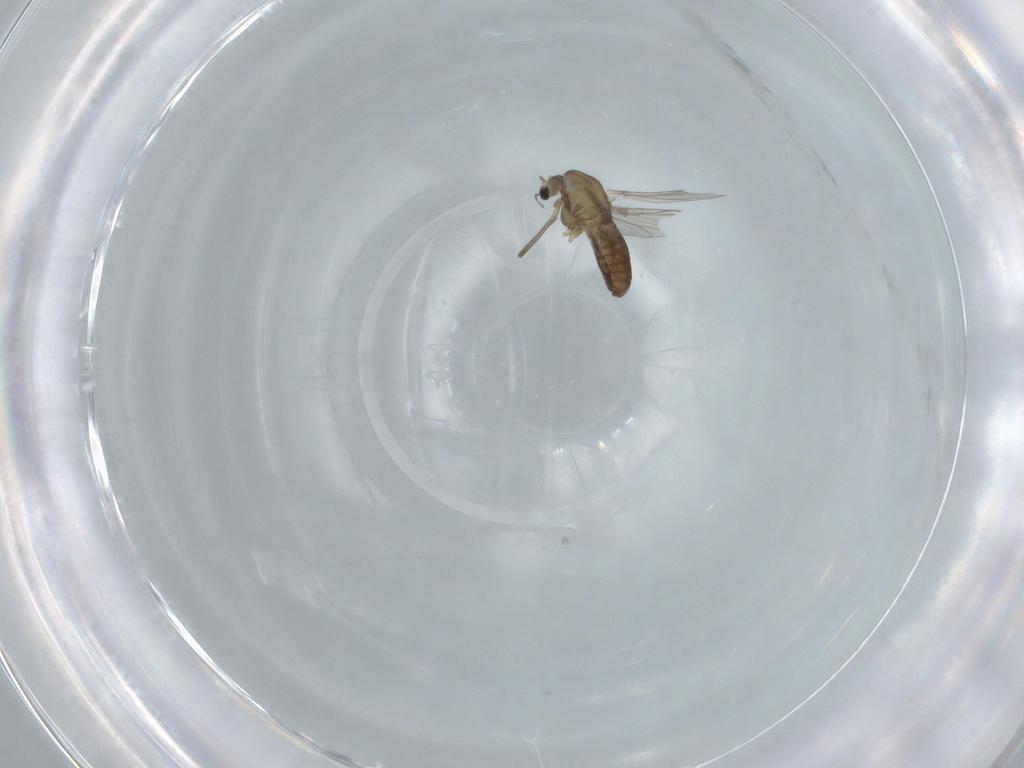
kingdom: Animalia
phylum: Arthropoda
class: Insecta
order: Diptera
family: Chironomidae
